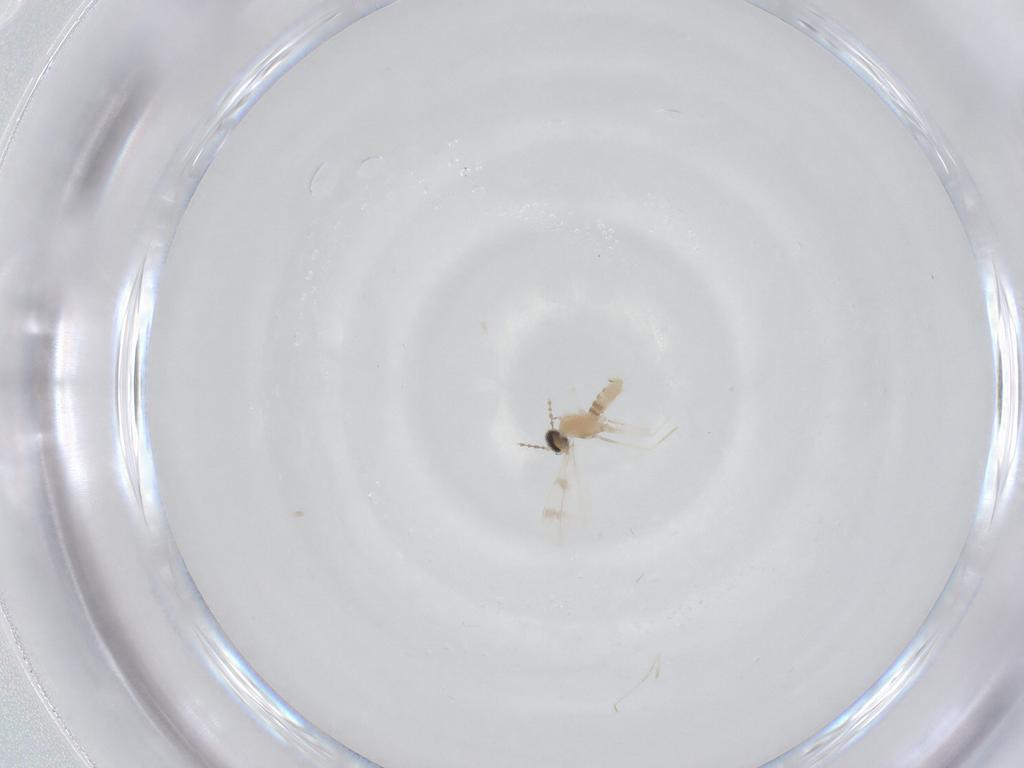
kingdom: Animalia
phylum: Arthropoda
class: Insecta
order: Diptera
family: Cecidomyiidae
